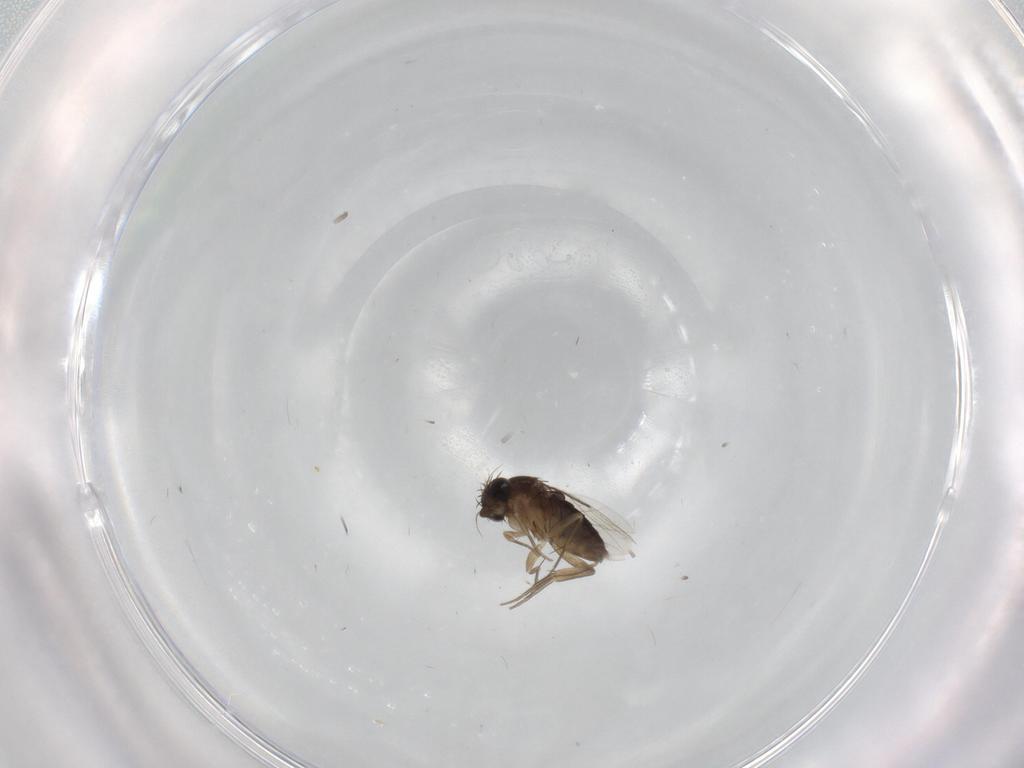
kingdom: Animalia
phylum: Arthropoda
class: Insecta
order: Diptera
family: Phoridae
